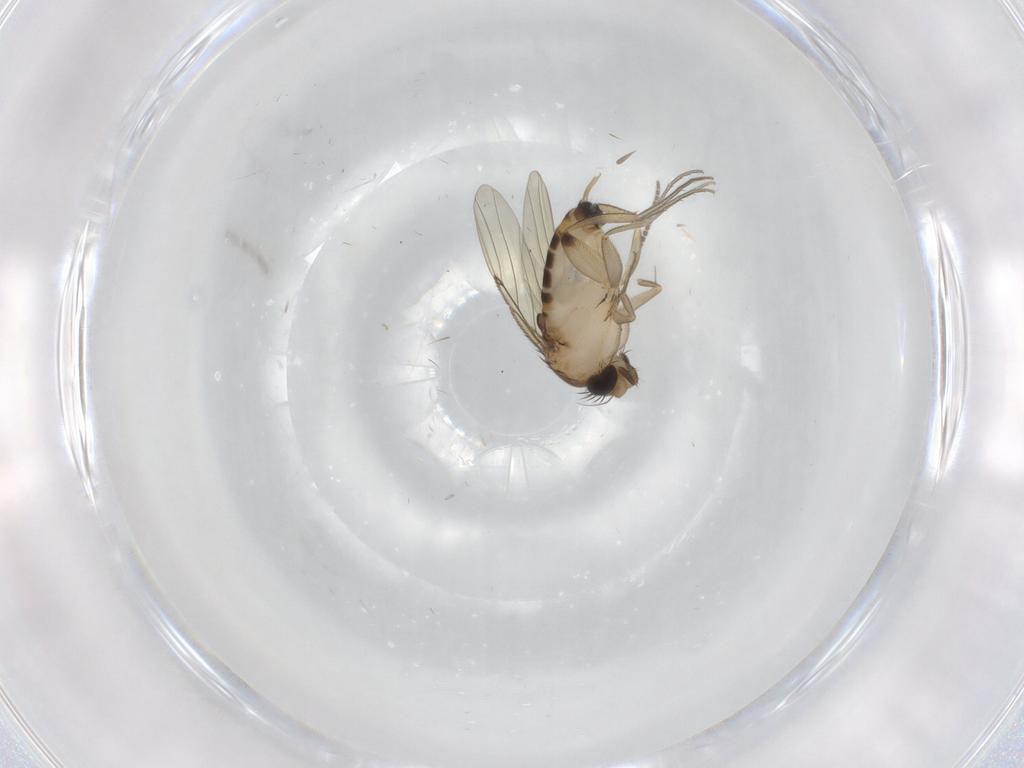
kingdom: Animalia
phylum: Arthropoda
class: Insecta
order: Diptera
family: Phoridae
